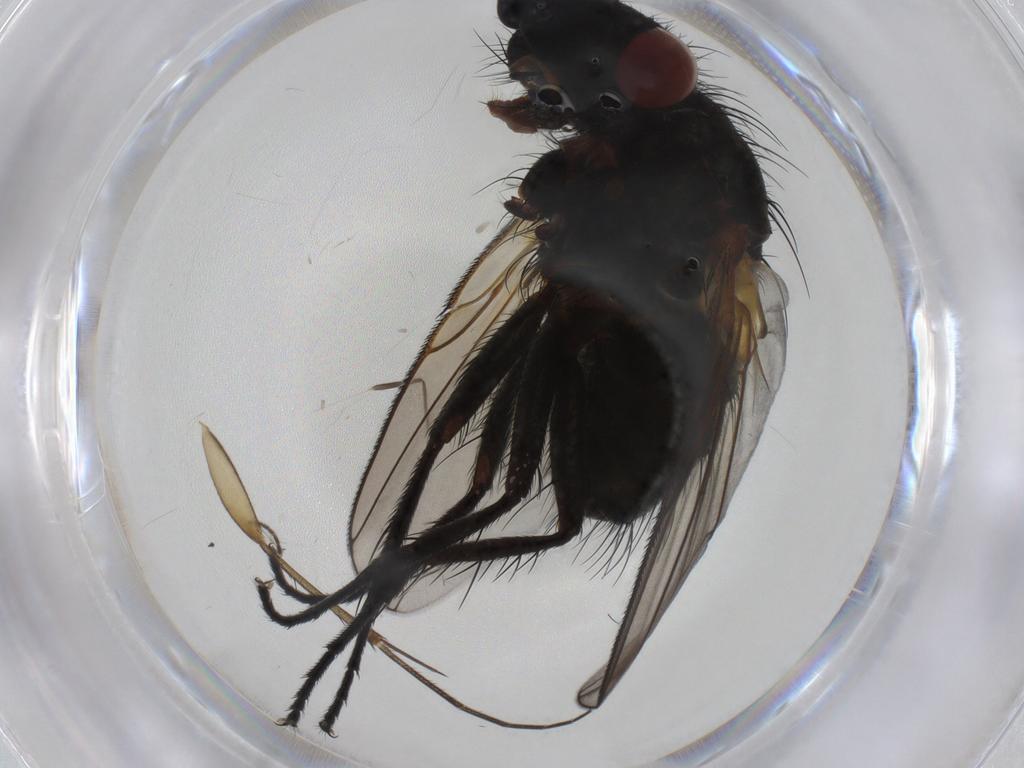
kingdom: Animalia
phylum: Arthropoda
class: Insecta
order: Diptera
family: Tachinidae
